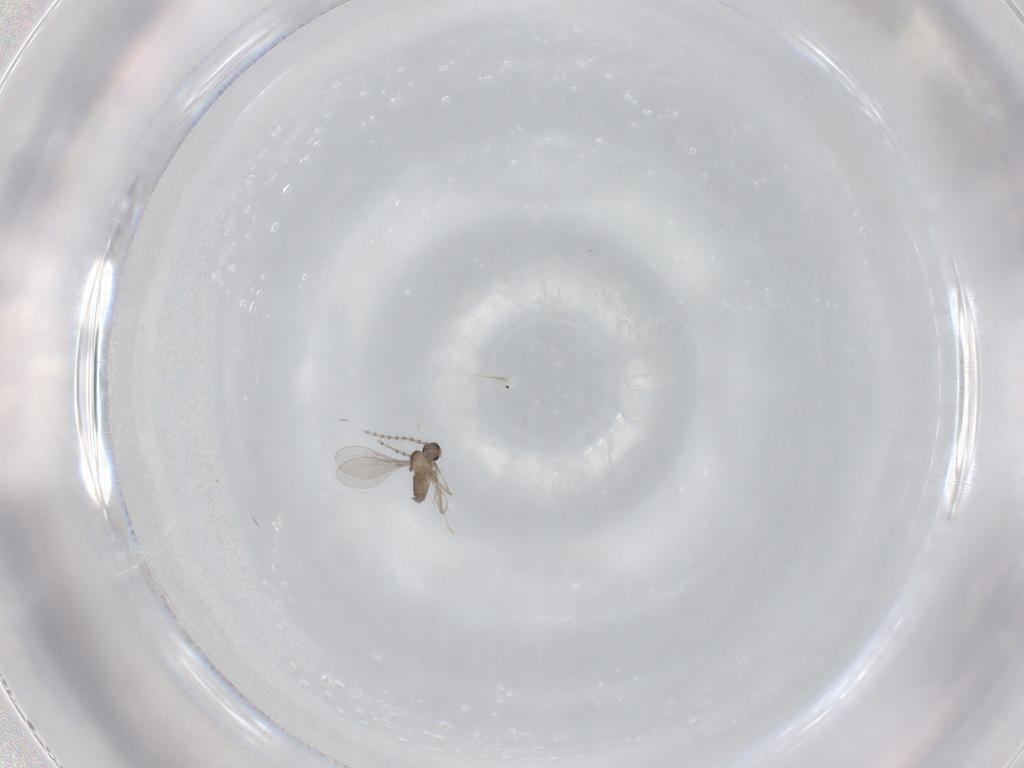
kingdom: Animalia
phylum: Arthropoda
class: Insecta
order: Diptera
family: Cecidomyiidae
